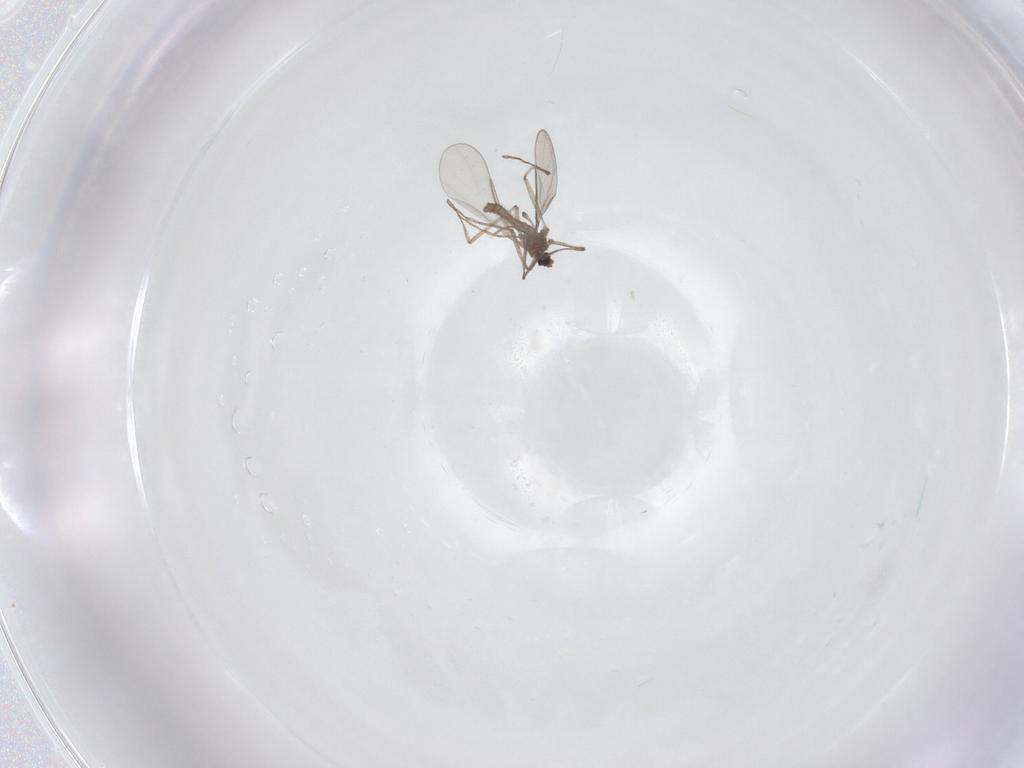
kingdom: Animalia
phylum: Arthropoda
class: Insecta
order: Diptera
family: Cecidomyiidae
